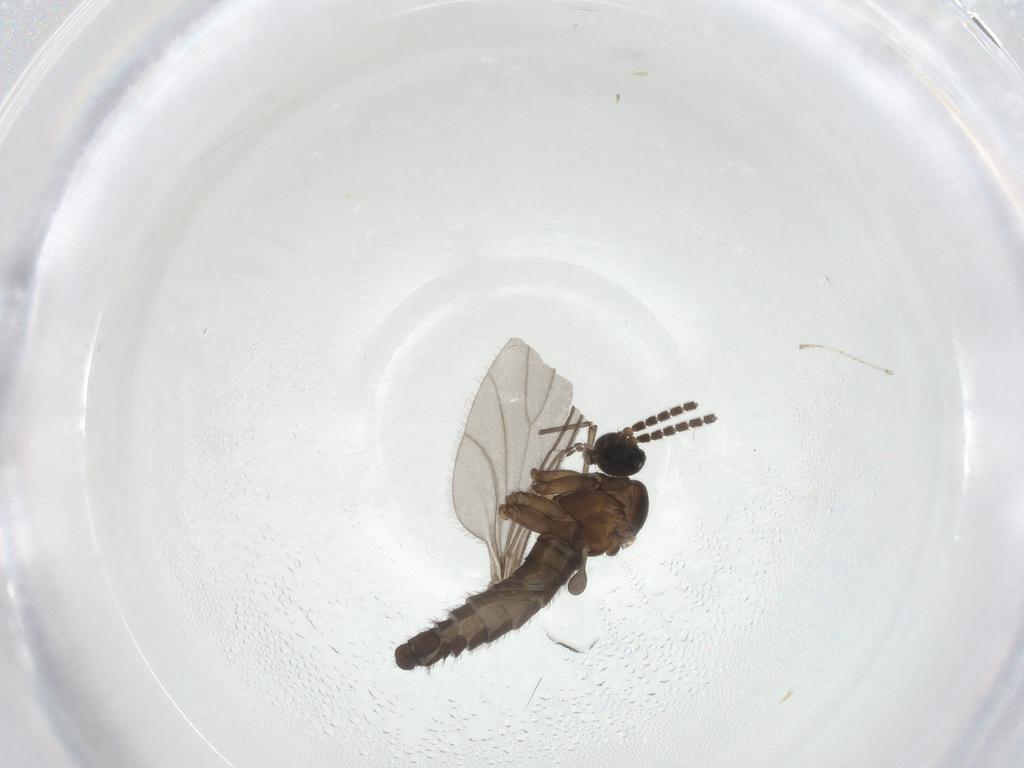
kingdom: Animalia
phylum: Arthropoda
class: Insecta
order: Diptera
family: Sciaridae
